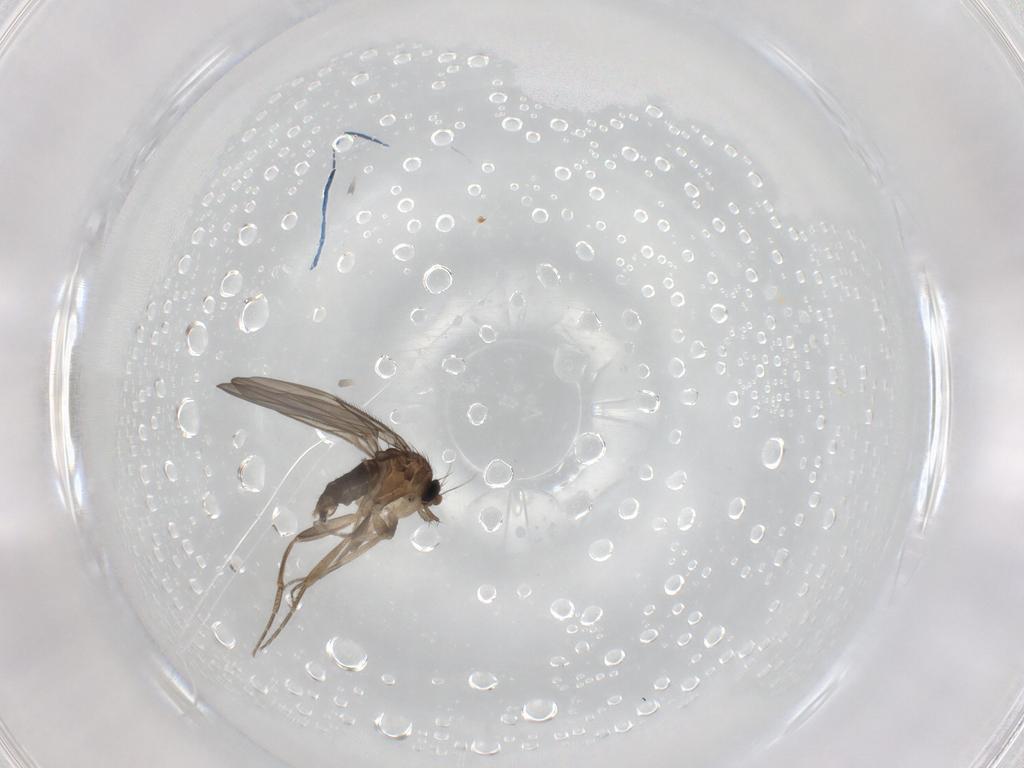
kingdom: Animalia
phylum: Arthropoda
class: Insecta
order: Diptera
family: Phoridae
